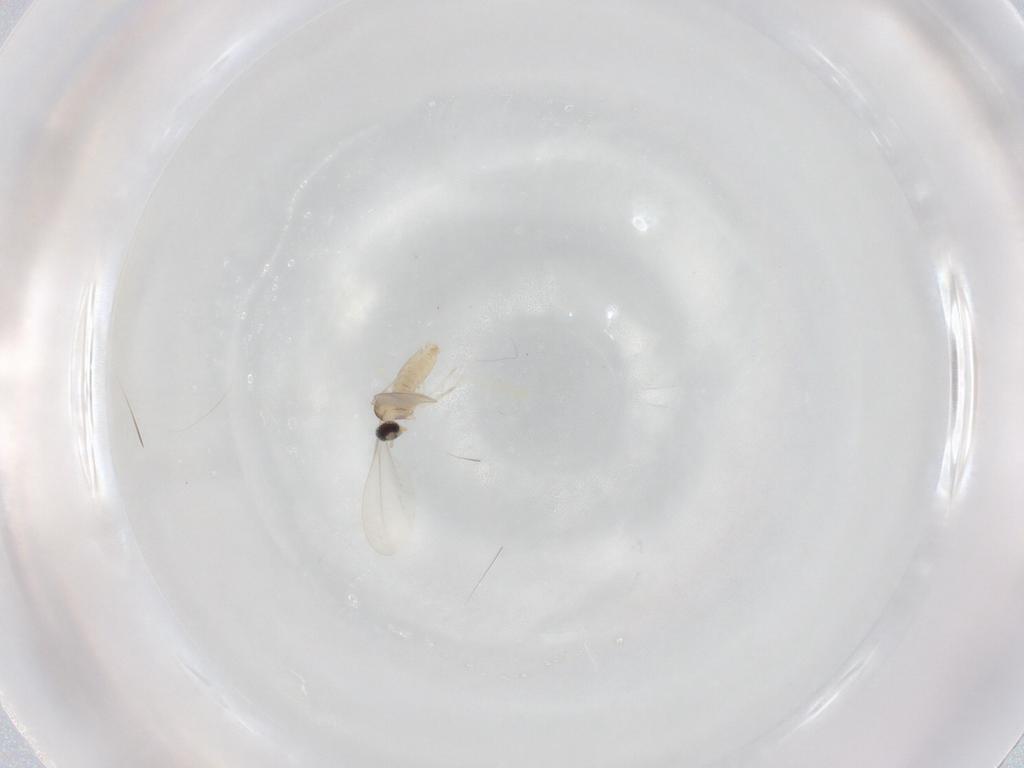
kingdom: Animalia
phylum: Arthropoda
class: Insecta
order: Diptera
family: Cecidomyiidae
